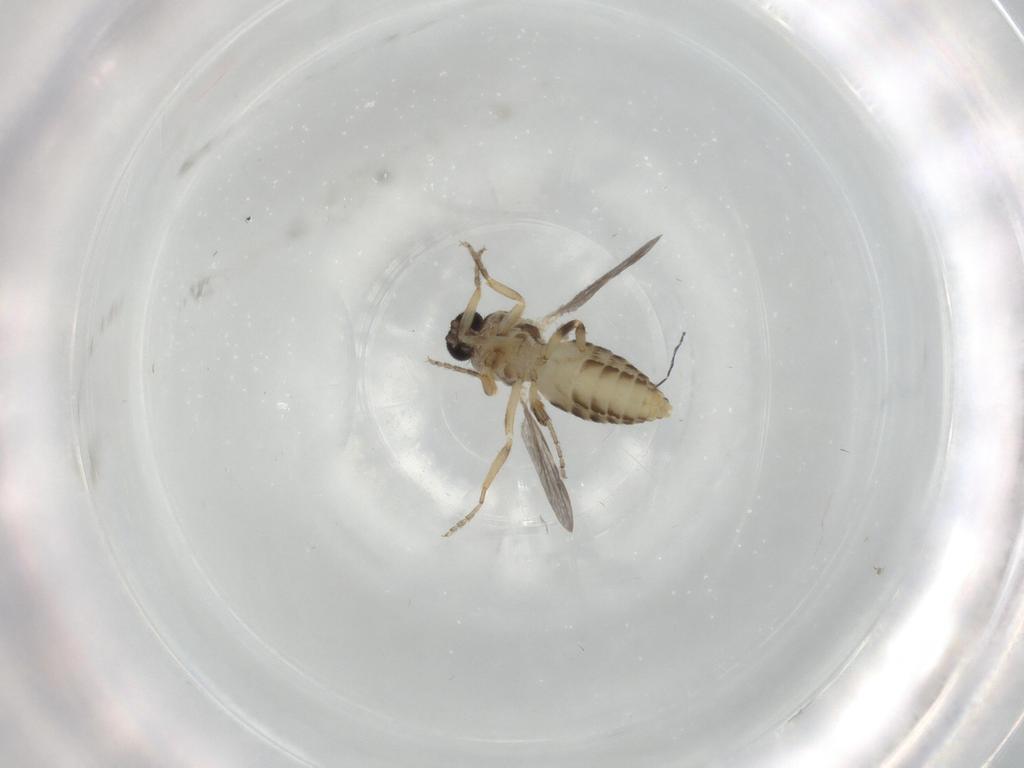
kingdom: Animalia
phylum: Arthropoda
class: Insecta
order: Diptera
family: Ceratopogonidae
